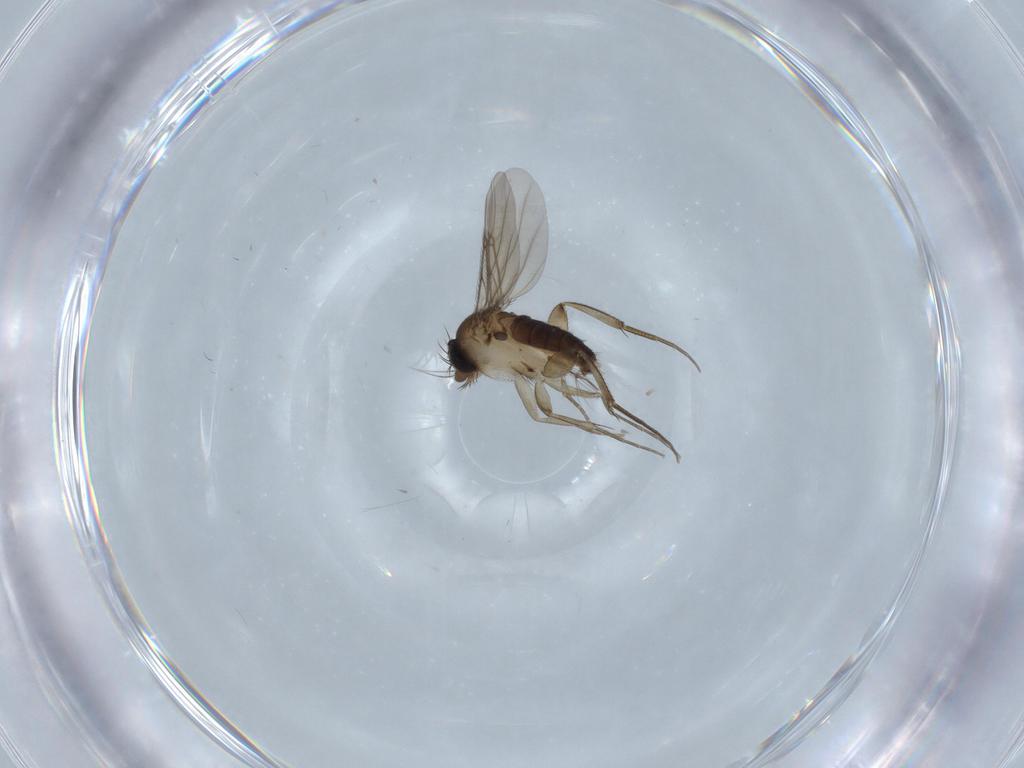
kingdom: Animalia
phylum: Arthropoda
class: Insecta
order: Diptera
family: Phoridae
